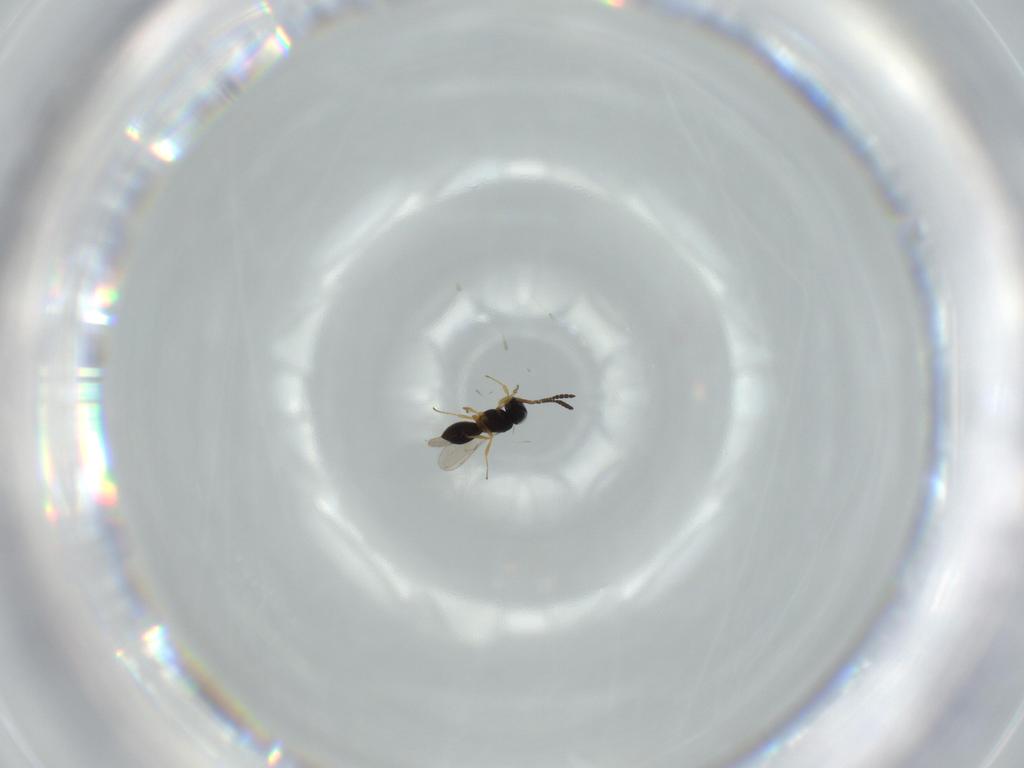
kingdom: Animalia
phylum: Arthropoda
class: Insecta
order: Hymenoptera
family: Scelionidae
